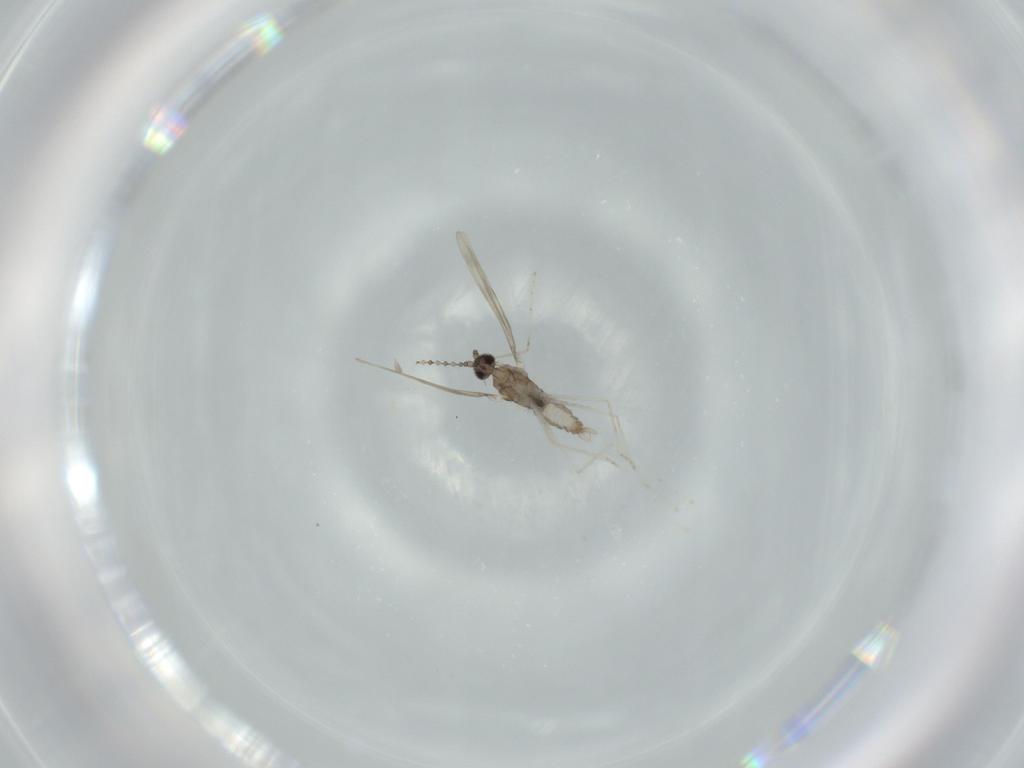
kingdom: Animalia
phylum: Arthropoda
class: Insecta
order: Diptera
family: Cecidomyiidae
